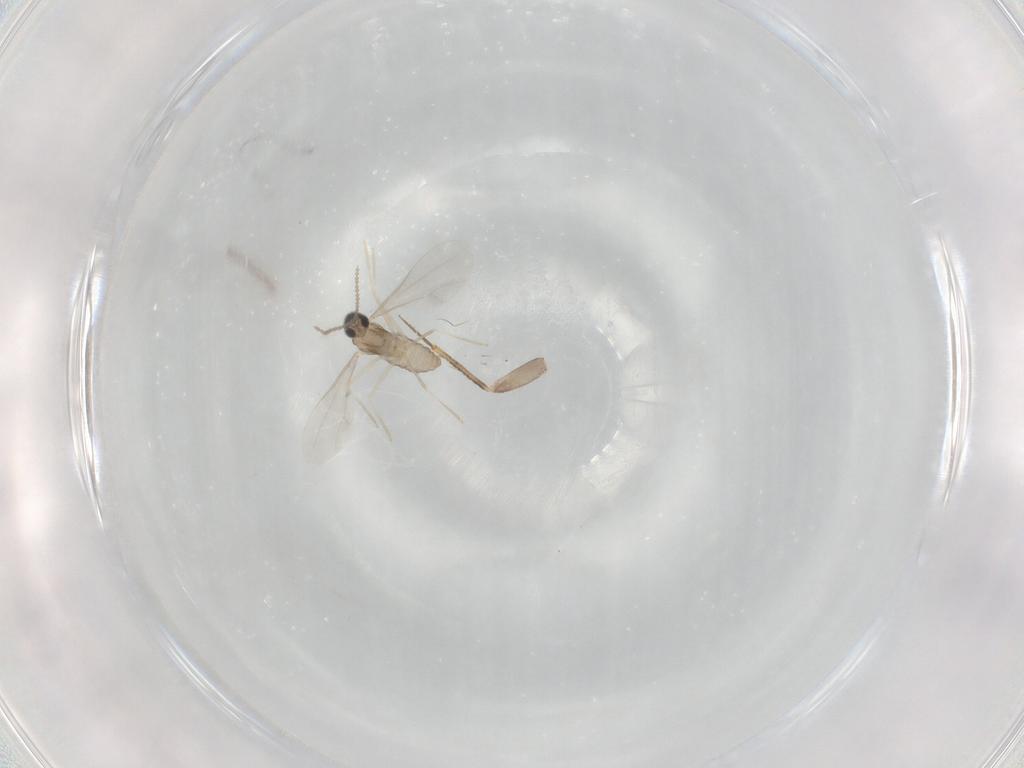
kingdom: Animalia
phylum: Arthropoda
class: Insecta
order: Diptera
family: Cecidomyiidae
